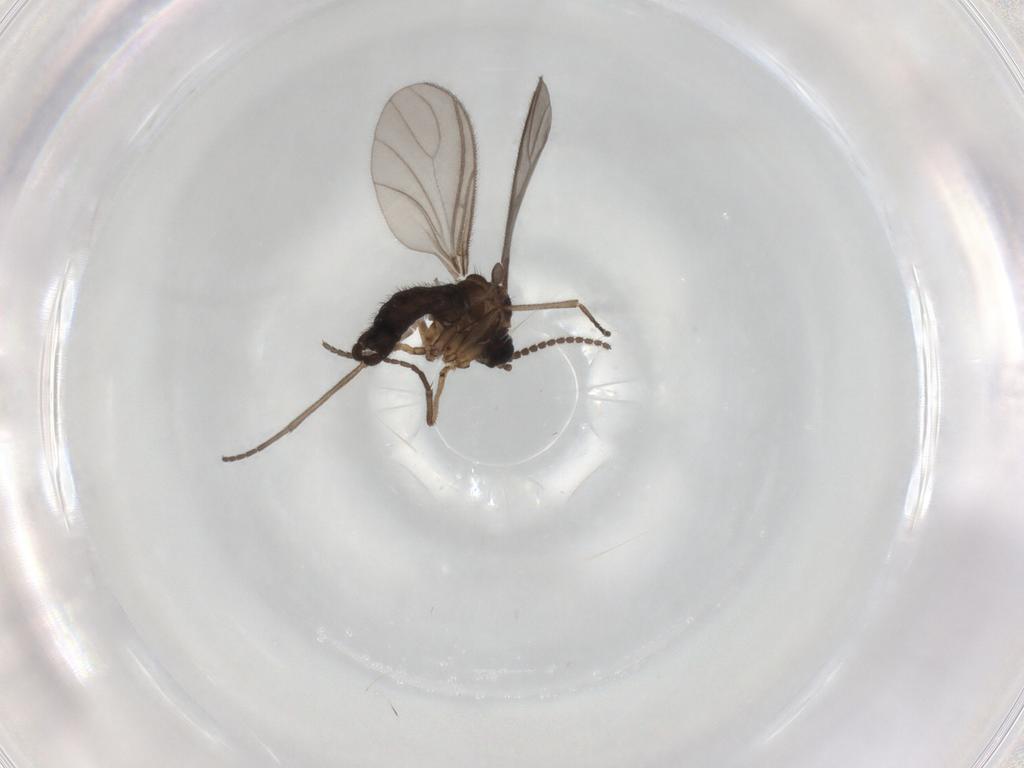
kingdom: Animalia
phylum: Arthropoda
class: Insecta
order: Diptera
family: Sciaridae
